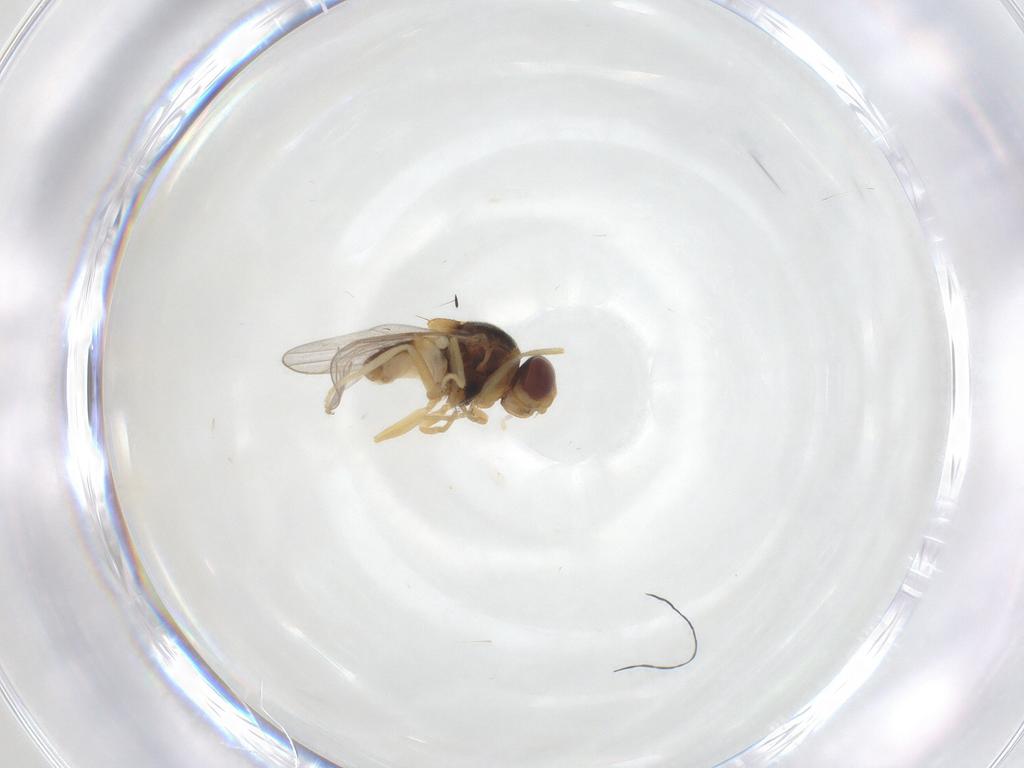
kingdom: Animalia
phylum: Arthropoda
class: Insecta
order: Diptera
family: Chloropidae
